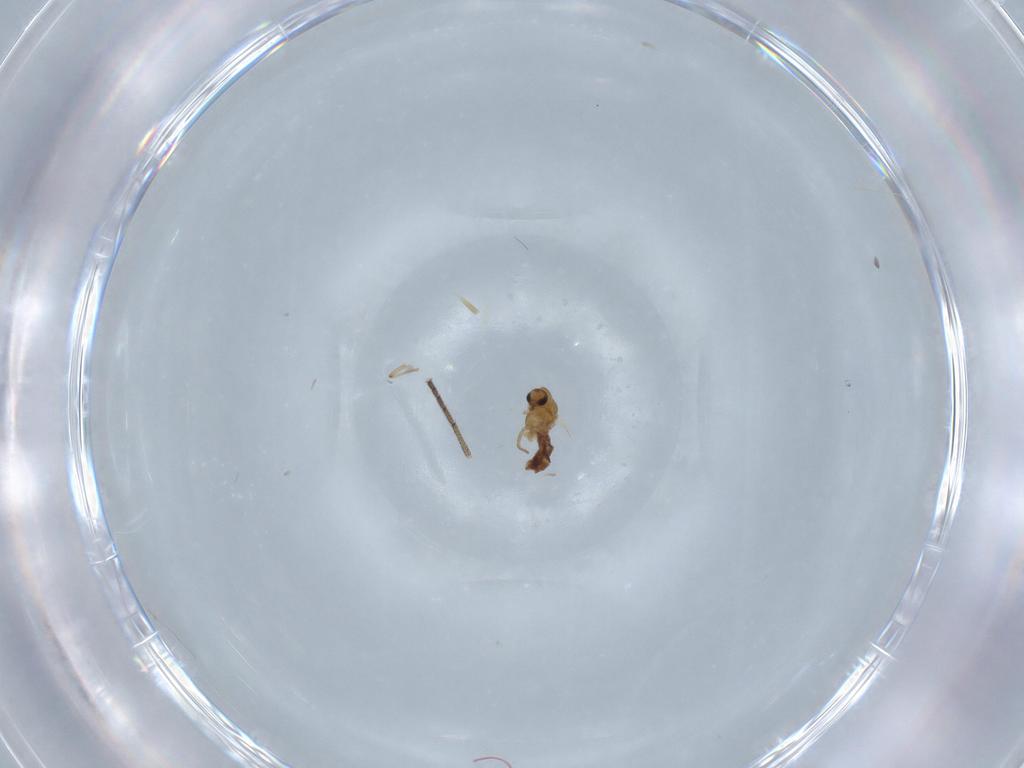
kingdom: Animalia
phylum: Arthropoda
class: Insecta
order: Diptera
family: Dolichopodidae
